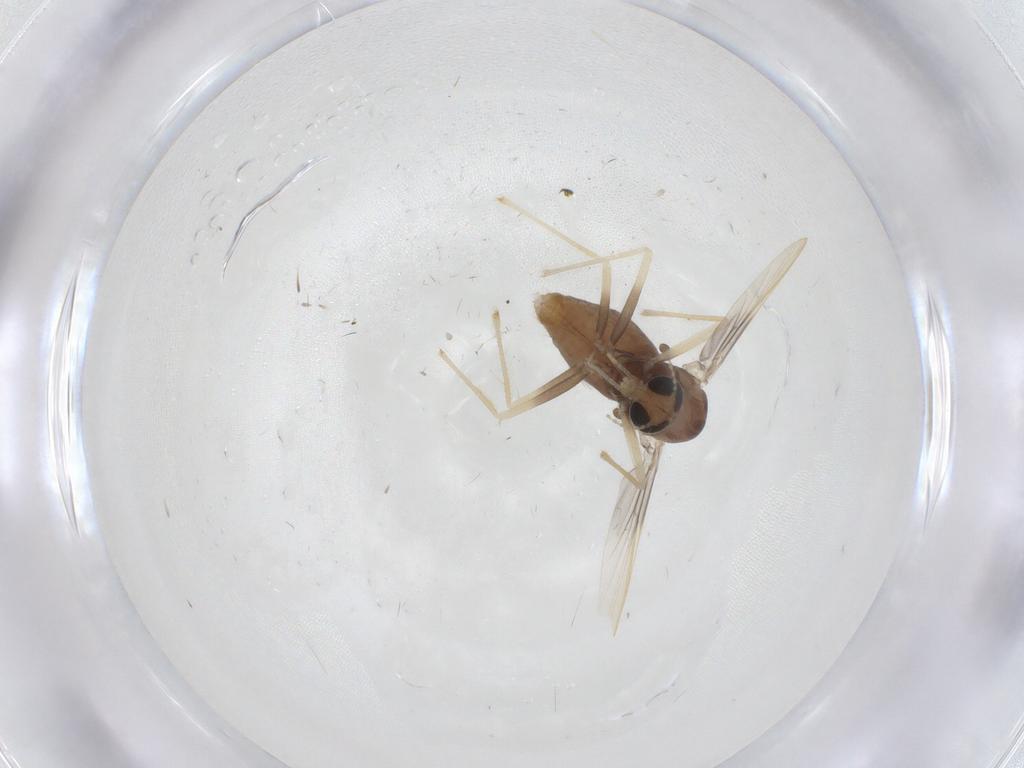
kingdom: Animalia
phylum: Arthropoda
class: Insecta
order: Diptera
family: Chironomidae
